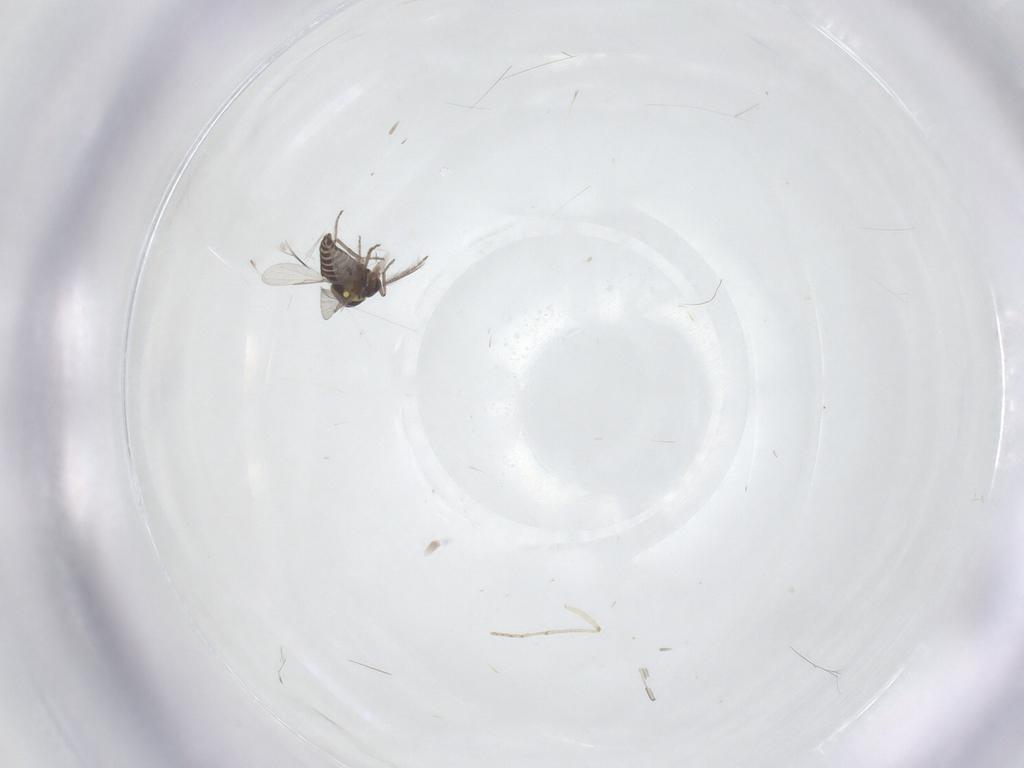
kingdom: Animalia
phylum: Arthropoda
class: Insecta
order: Diptera
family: Ceratopogonidae
